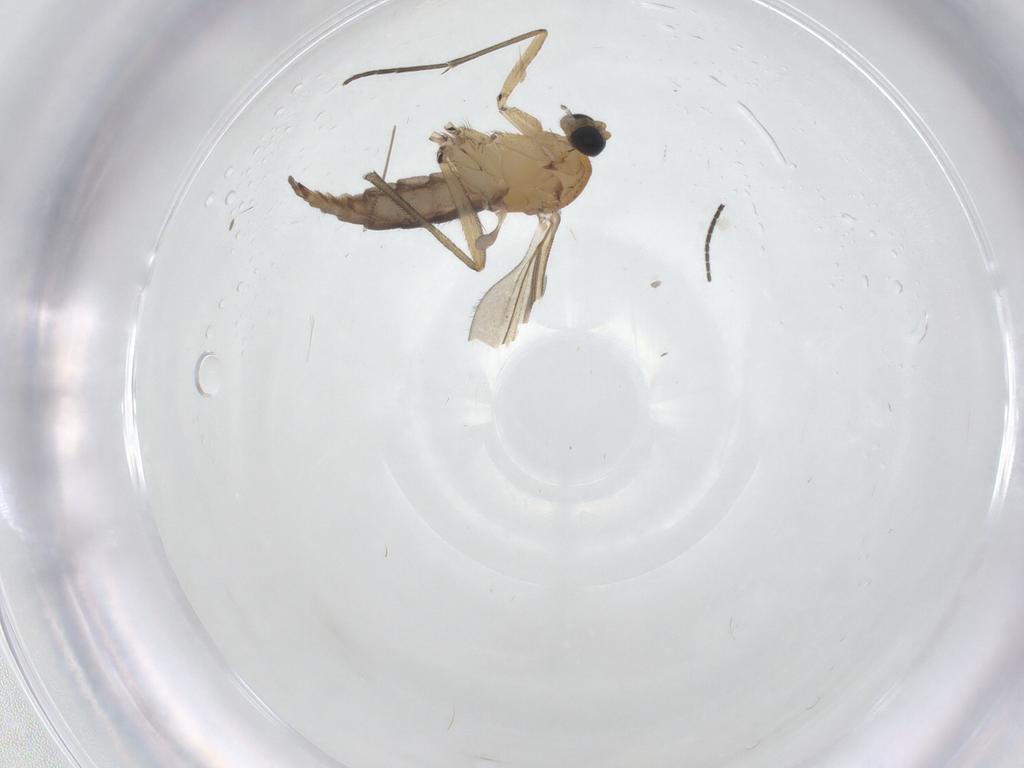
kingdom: Animalia
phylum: Arthropoda
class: Insecta
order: Diptera
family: Sciaridae
